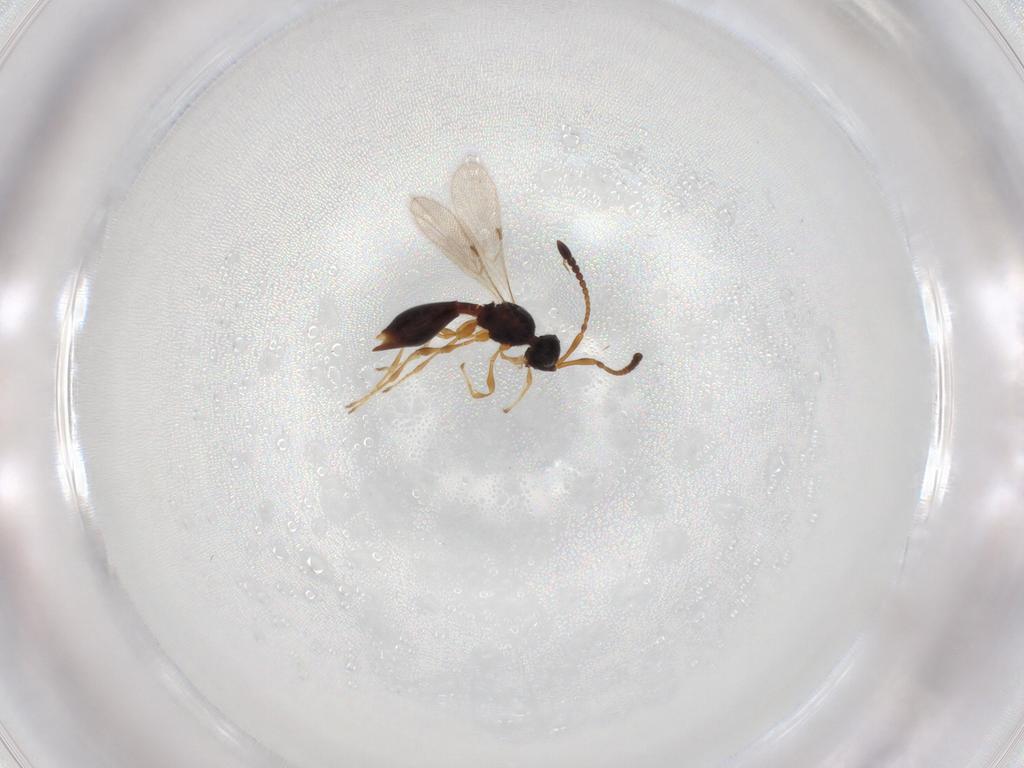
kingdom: Animalia
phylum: Arthropoda
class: Insecta
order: Hymenoptera
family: Diapriidae
